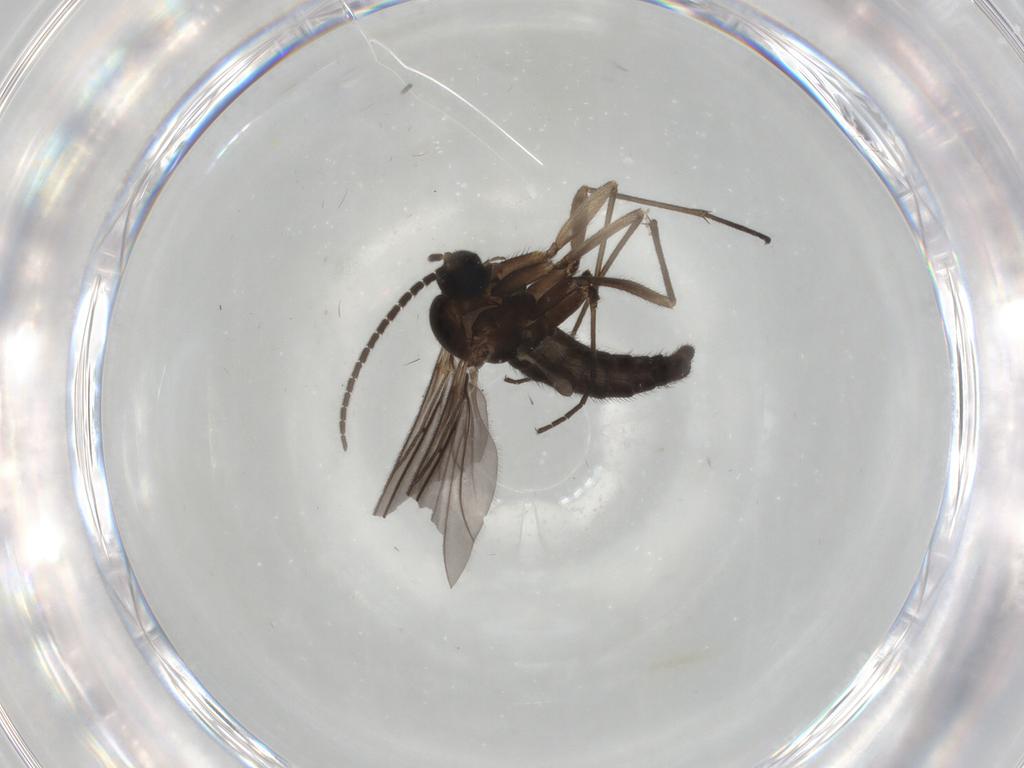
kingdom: Animalia
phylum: Arthropoda
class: Insecta
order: Diptera
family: Sciaridae
